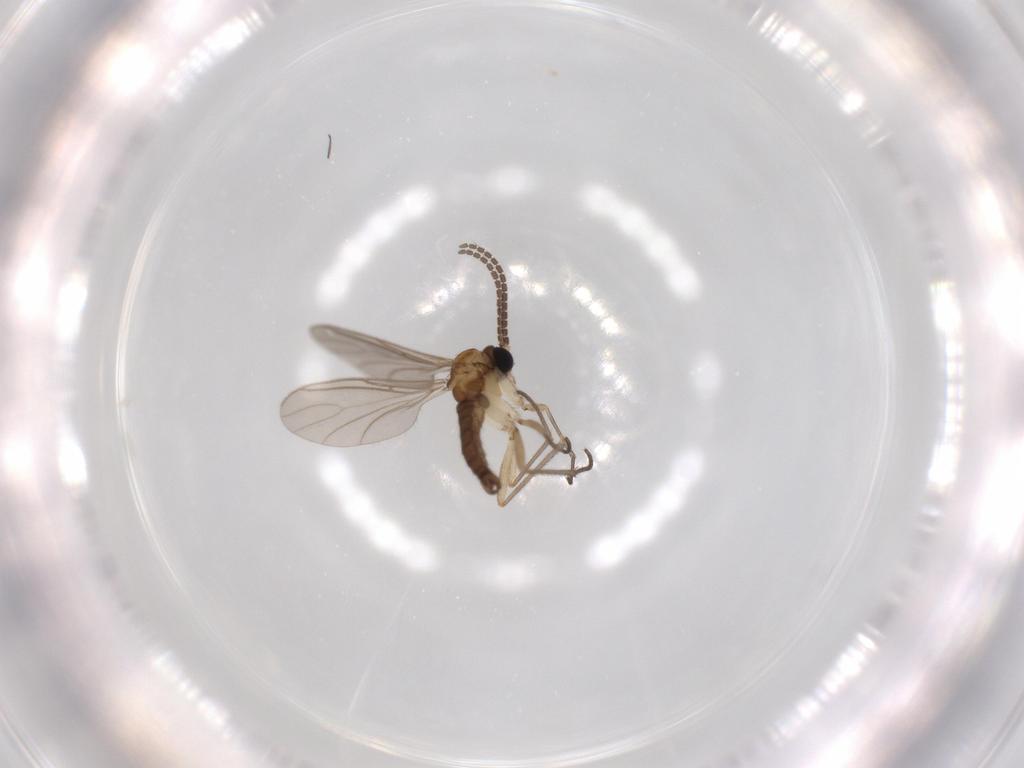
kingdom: Animalia
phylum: Arthropoda
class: Insecta
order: Diptera
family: Sciaridae
